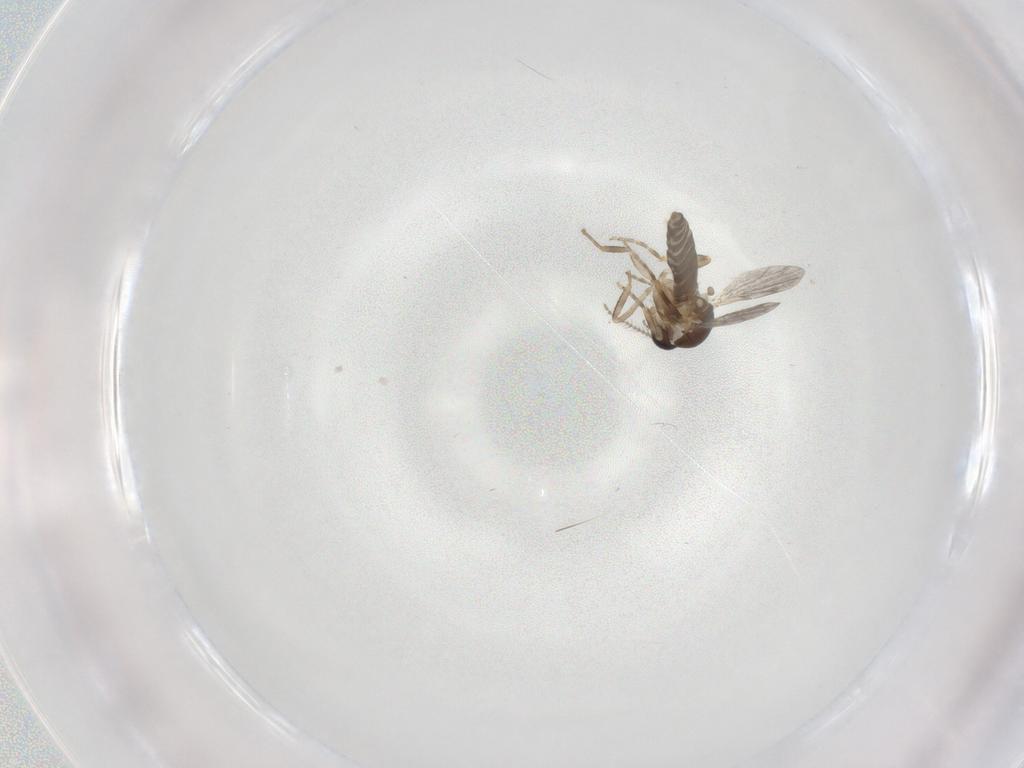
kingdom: Animalia
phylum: Arthropoda
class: Insecta
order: Diptera
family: Ceratopogonidae
